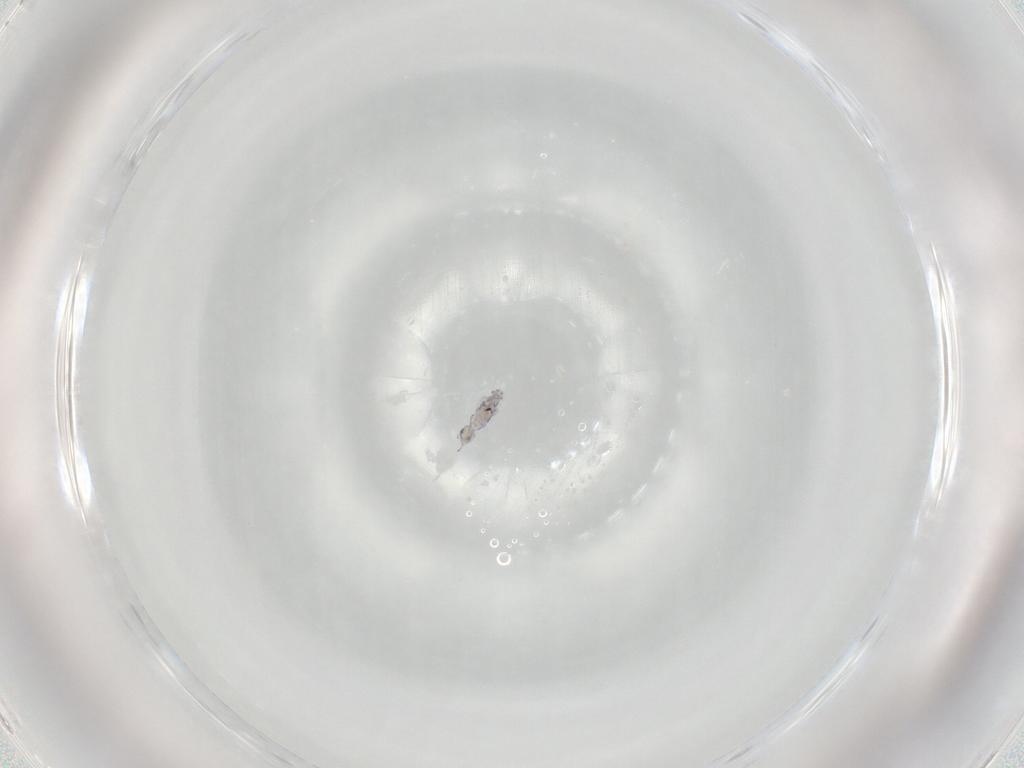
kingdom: Animalia
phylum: Arthropoda
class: Collembola
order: Entomobryomorpha
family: Entomobryidae
